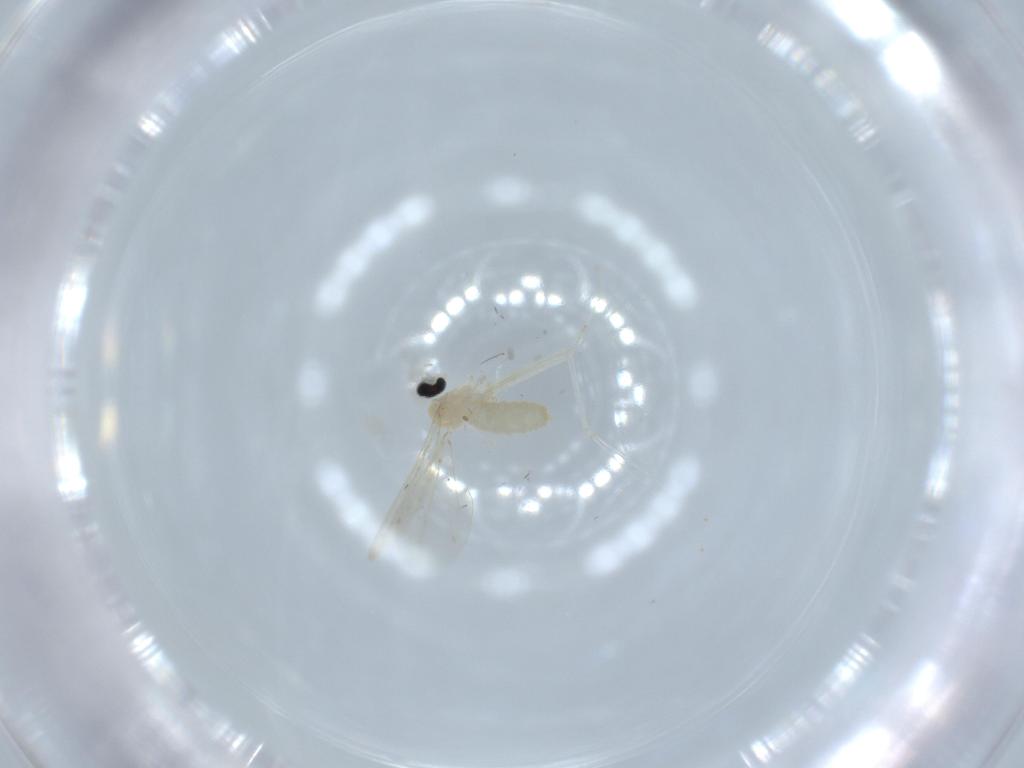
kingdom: Animalia
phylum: Arthropoda
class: Insecta
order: Diptera
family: Cecidomyiidae
